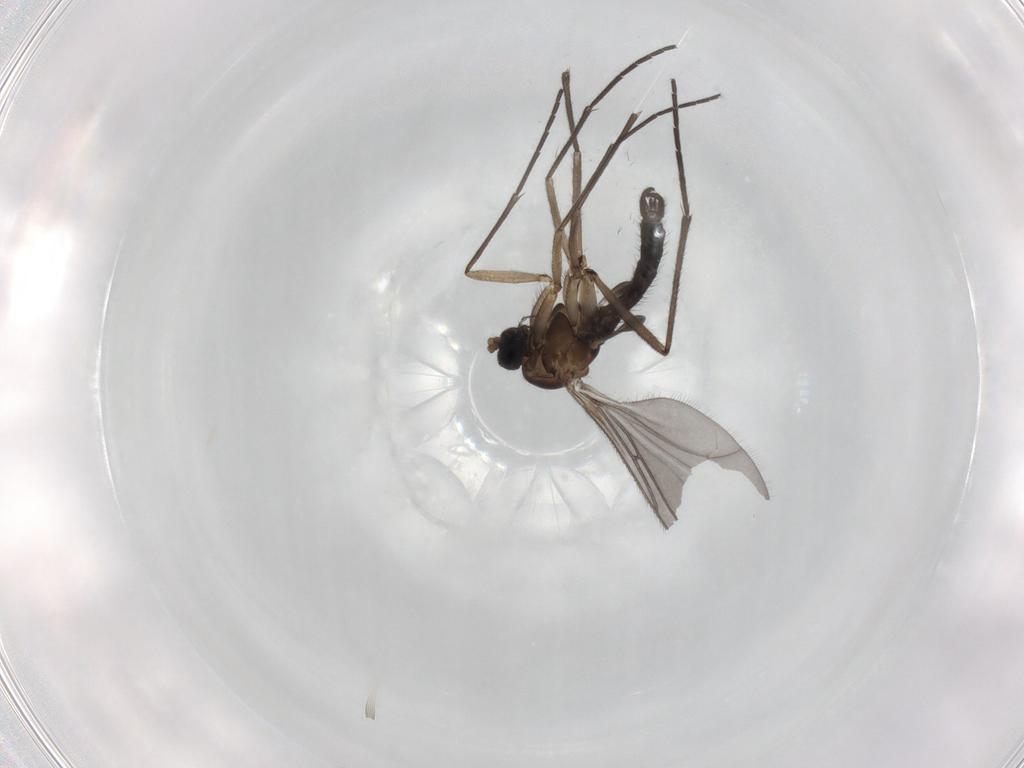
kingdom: Animalia
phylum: Arthropoda
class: Insecta
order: Diptera
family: Sciaridae
